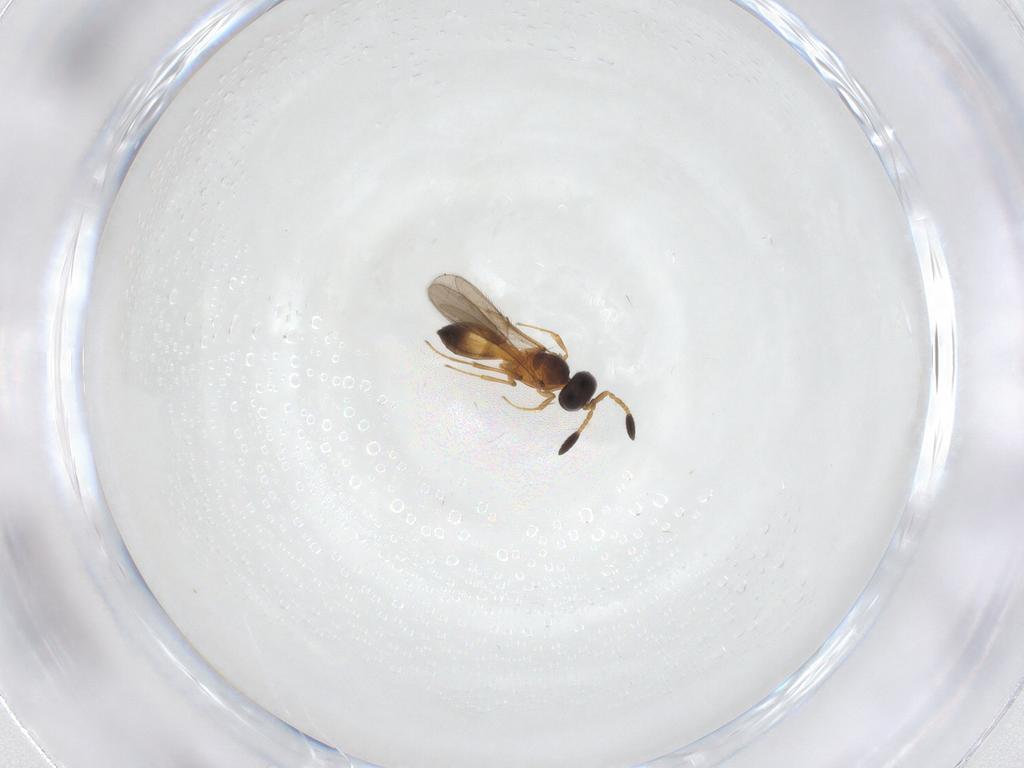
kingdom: Animalia
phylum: Arthropoda
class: Insecta
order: Hymenoptera
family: Scelionidae
